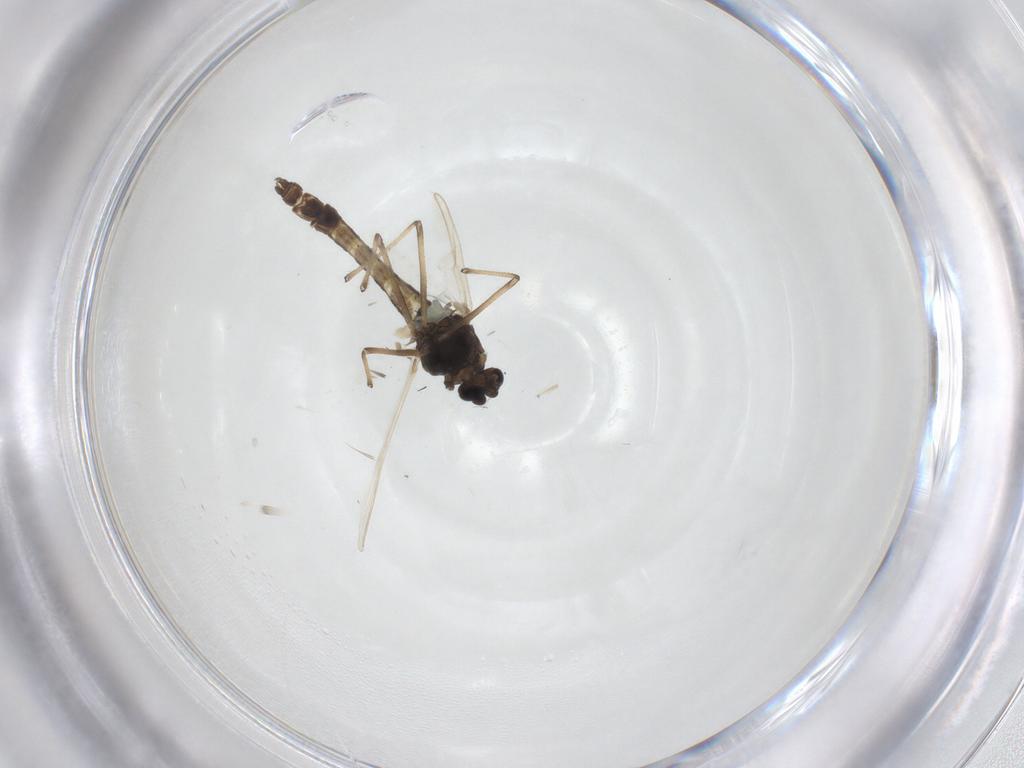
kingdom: Animalia
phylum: Arthropoda
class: Insecta
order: Diptera
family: Chironomidae
